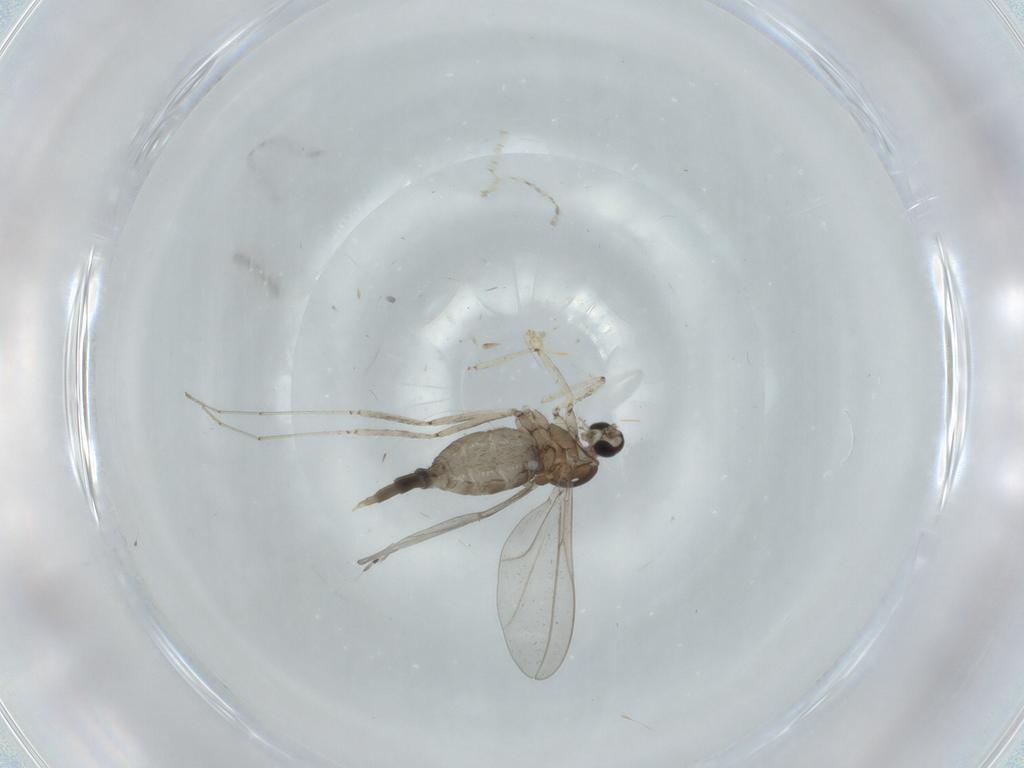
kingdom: Animalia
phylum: Arthropoda
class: Insecta
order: Diptera
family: Cecidomyiidae
